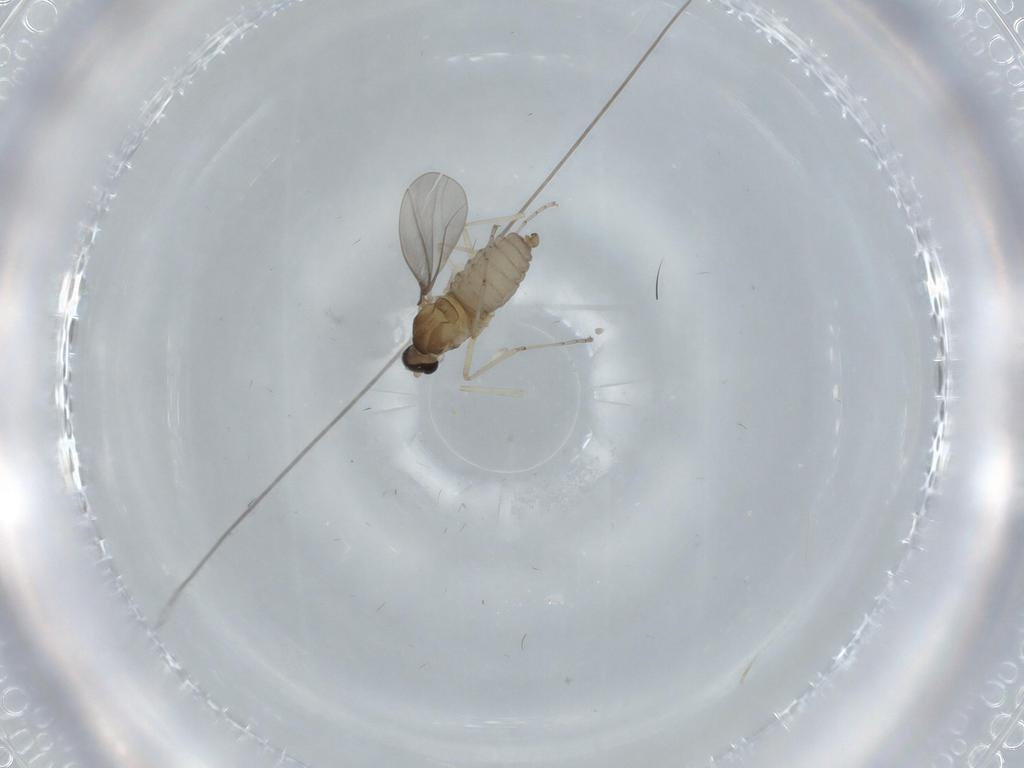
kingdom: Animalia
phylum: Arthropoda
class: Insecta
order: Diptera
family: Cecidomyiidae
